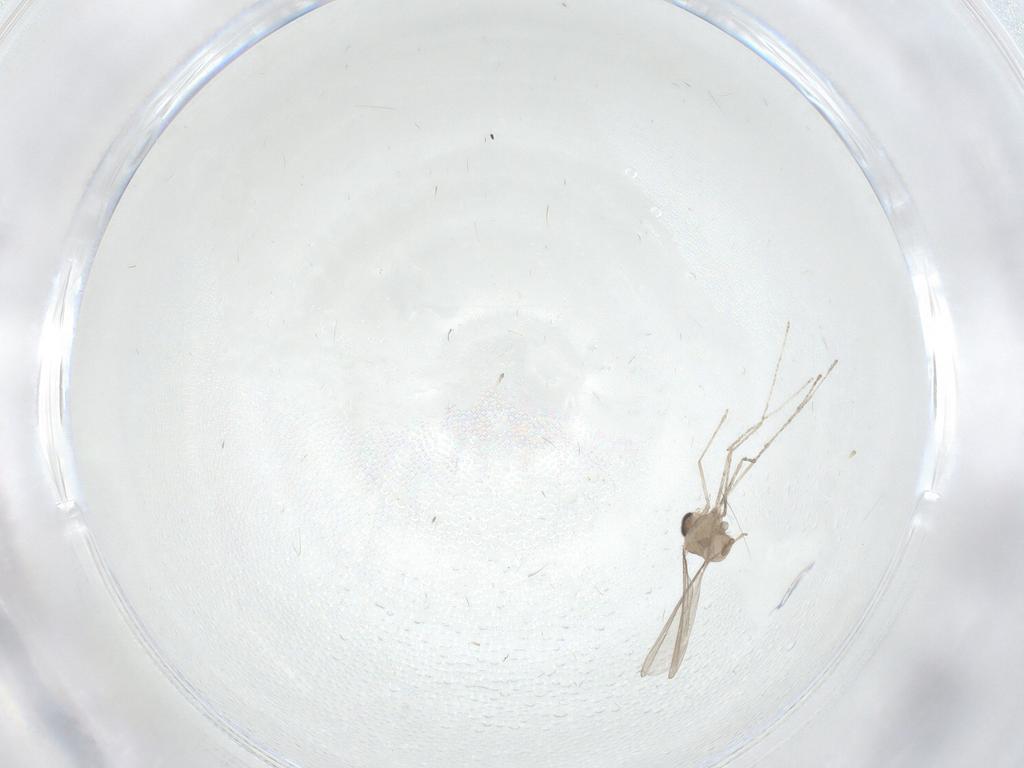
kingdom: Animalia
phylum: Arthropoda
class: Insecta
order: Diptera
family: Cecidomyiidae
